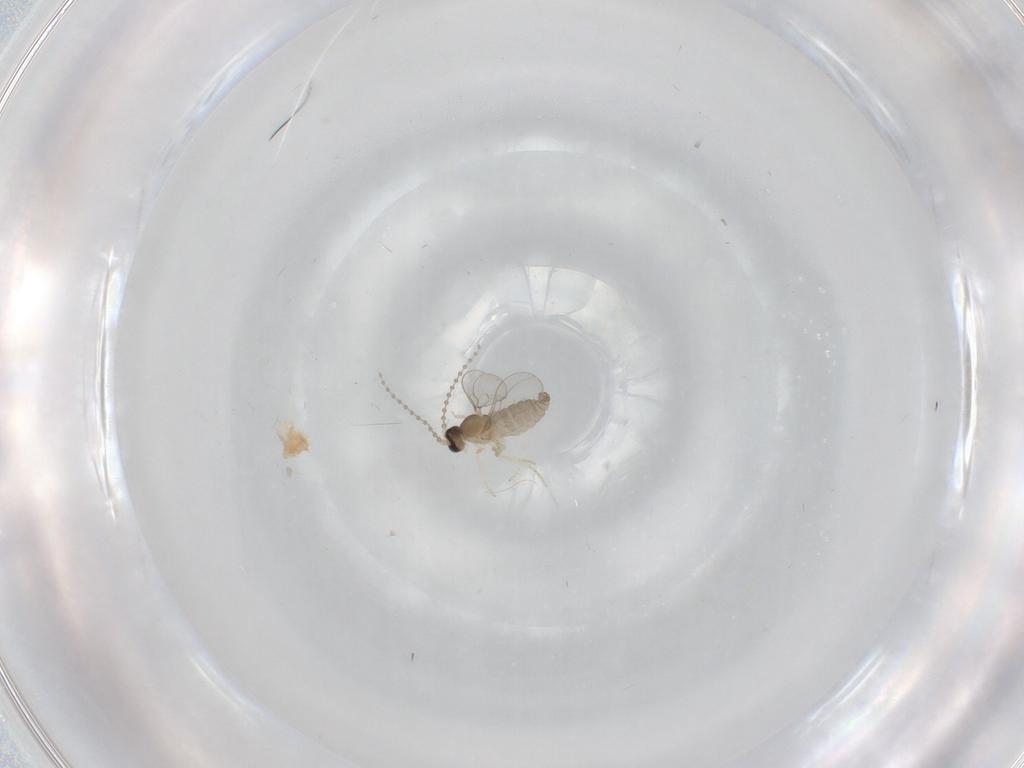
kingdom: Animalia
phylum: Arthropoda
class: Insecta
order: Diptera
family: Cecidomyiidae
